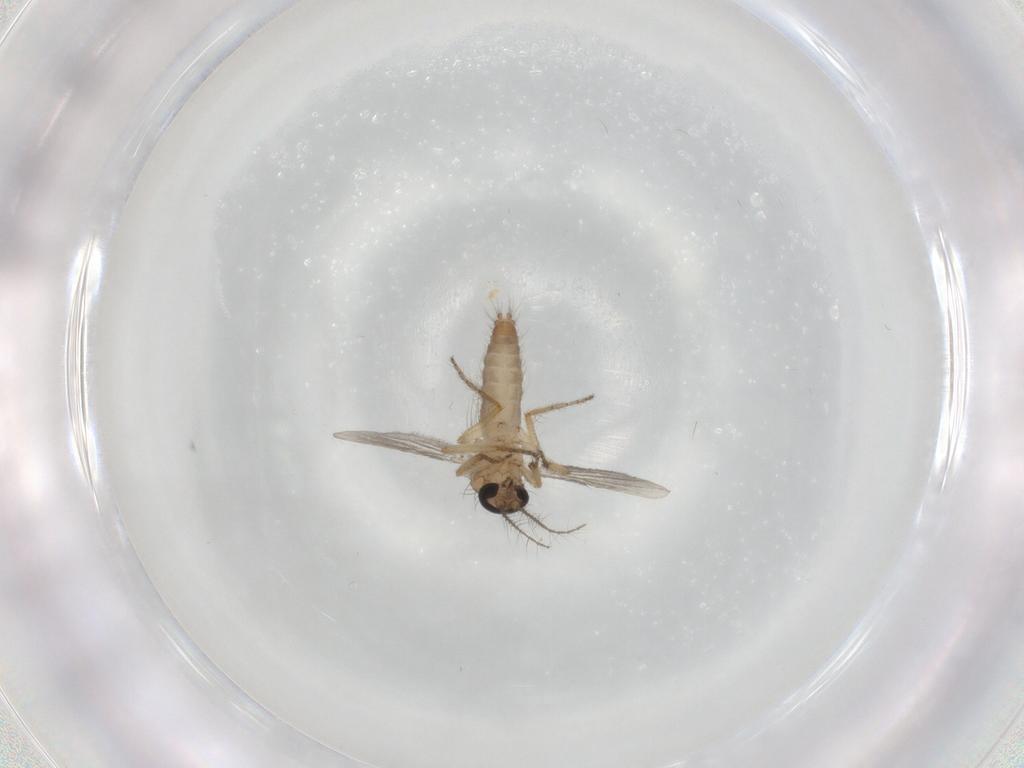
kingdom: Animalia
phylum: Arthropoda
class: Insecta
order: Diptera
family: Ceratopogonidae
